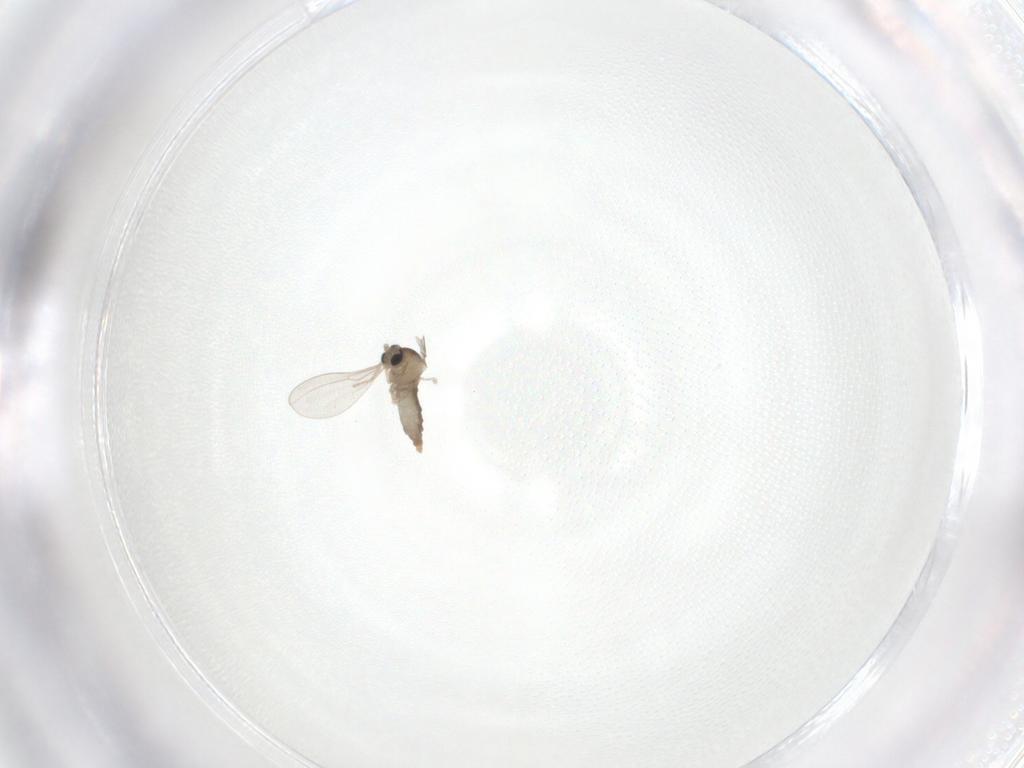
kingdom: Animalia
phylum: Arthropoda
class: Insecta
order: Diptera
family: Cecidomyiidae
